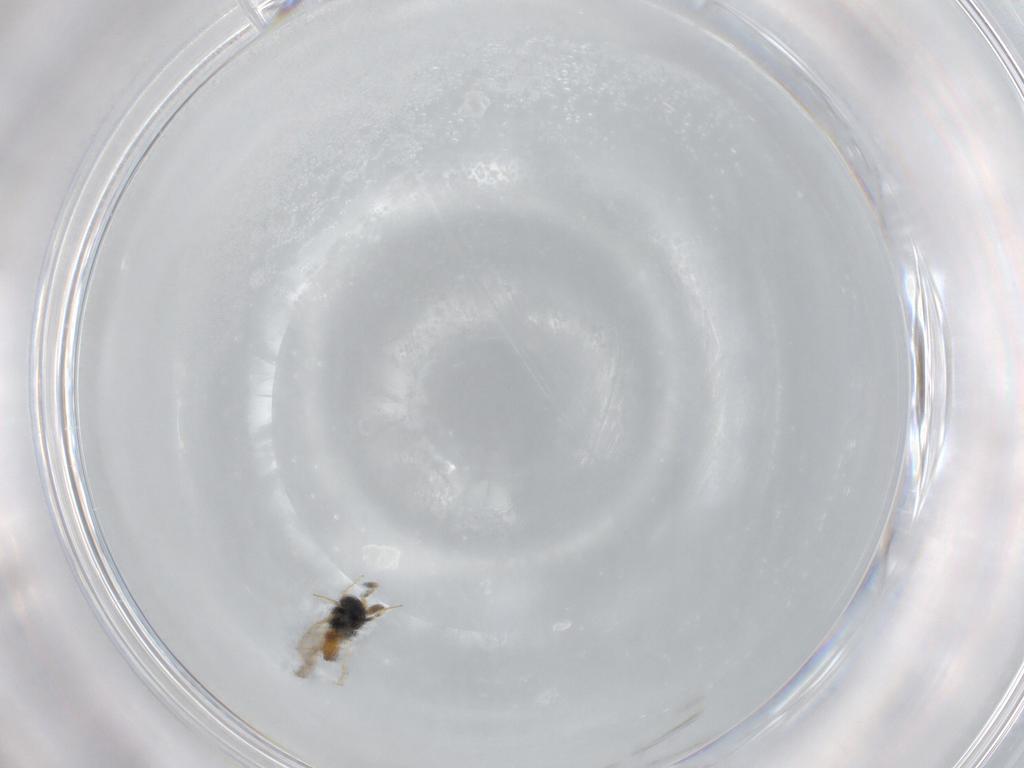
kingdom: Animalia
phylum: Arthropoda
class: Insecta
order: Hymenoptera
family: Scelionidae
